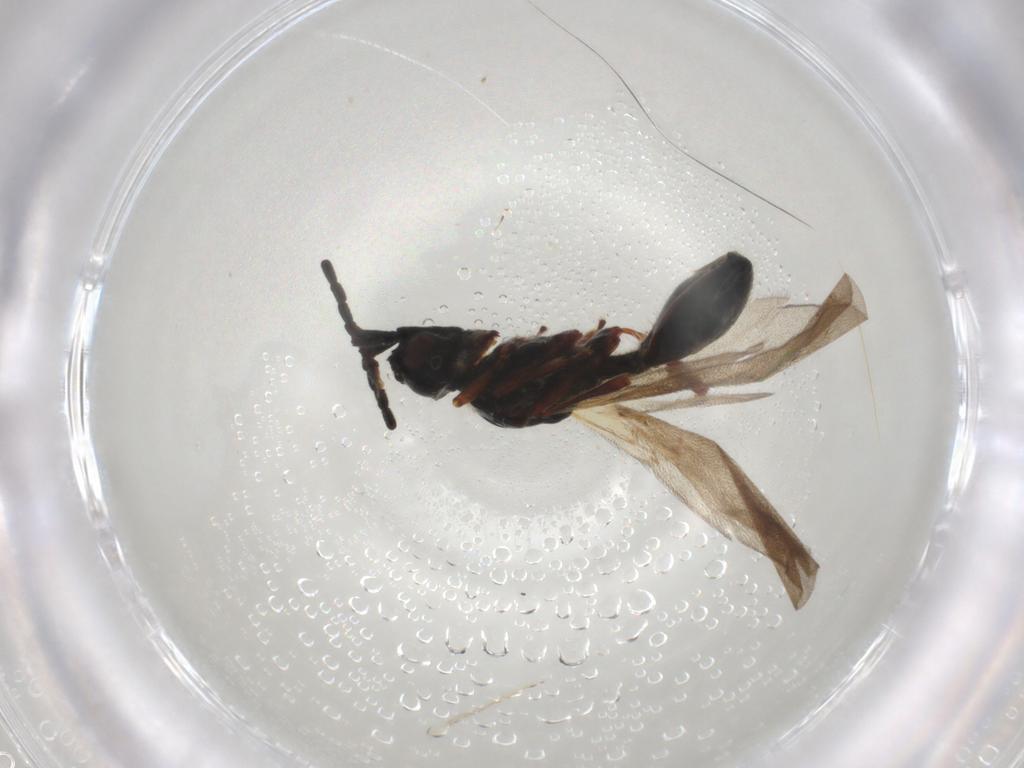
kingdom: Animalia
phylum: Arthropoda
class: Insecta
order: Hymenoptera
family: Diapriidae
